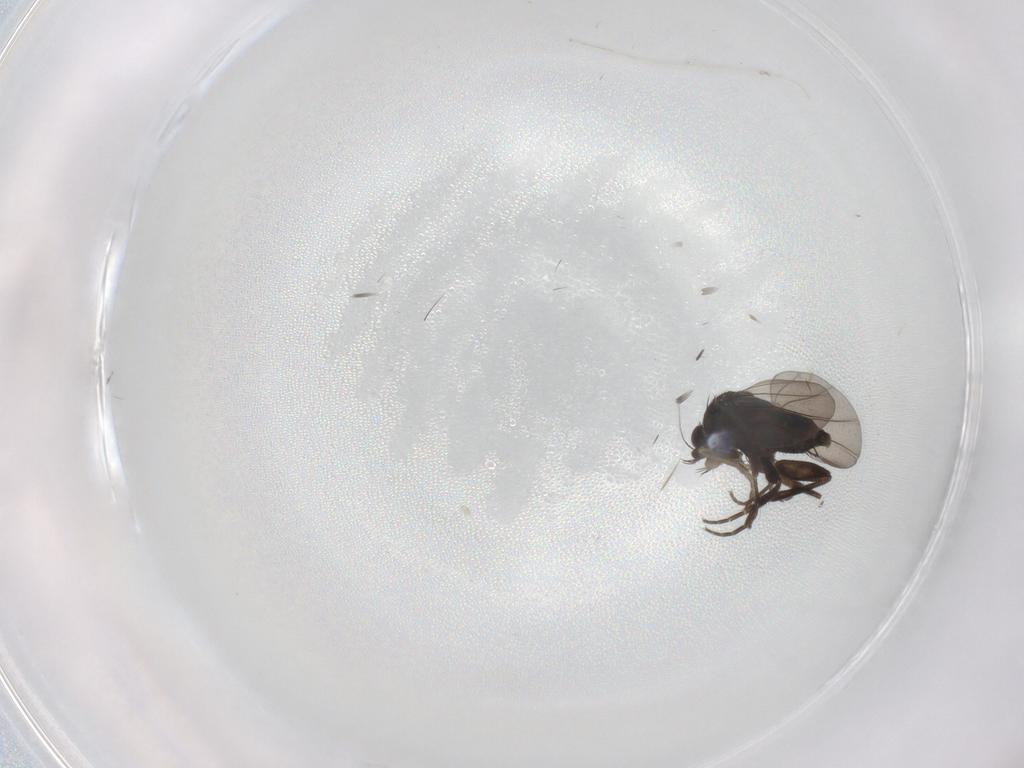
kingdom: Animalia
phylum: Arthropoda
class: Insecta
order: Diptera
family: Phoridae
